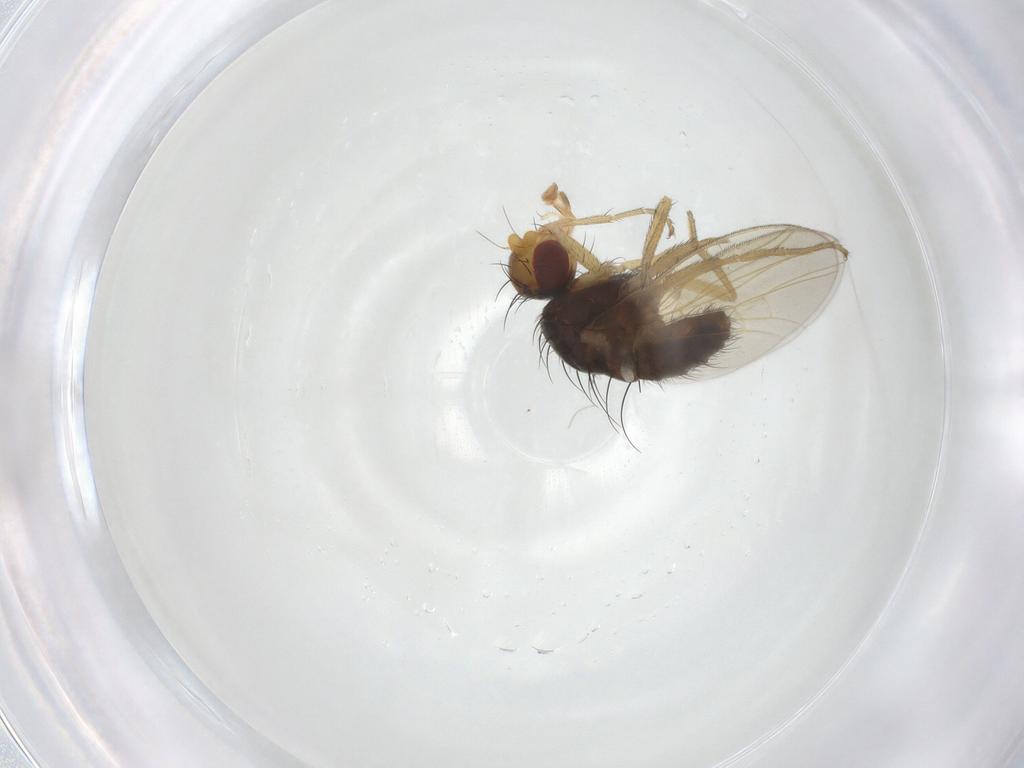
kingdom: Animalia
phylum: Arthropoda
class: Insecta
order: Diptera
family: Heleomyzidae
